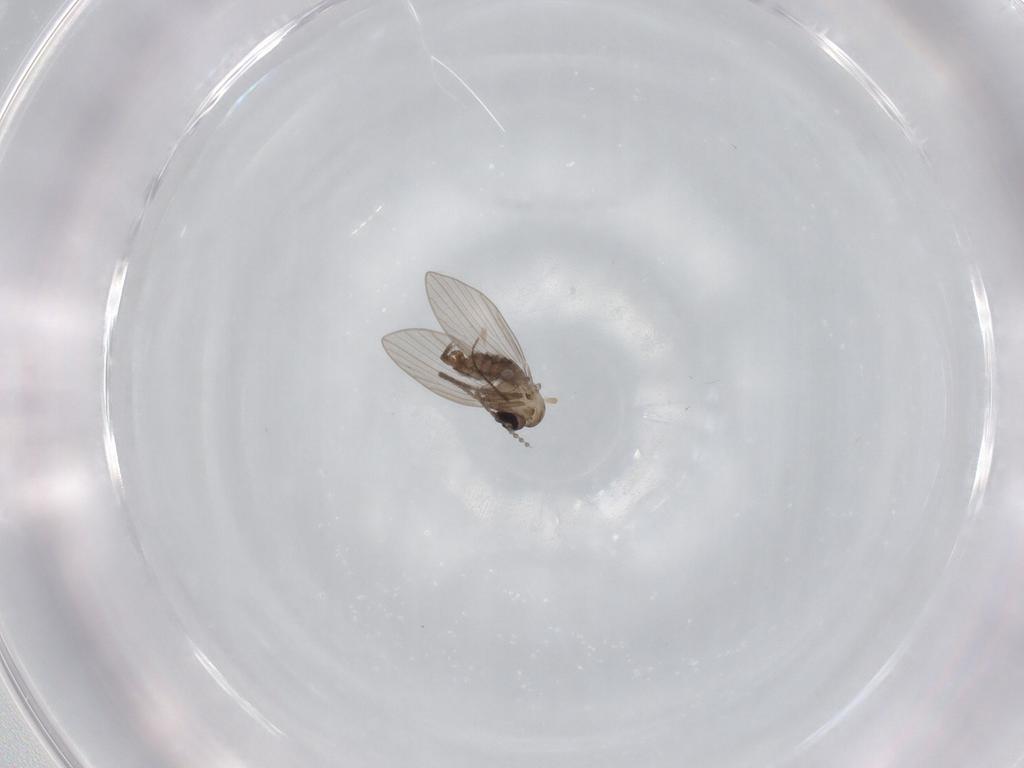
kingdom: Animalia
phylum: Arthropoda
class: Insecta
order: Diptera
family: Psychodidae
